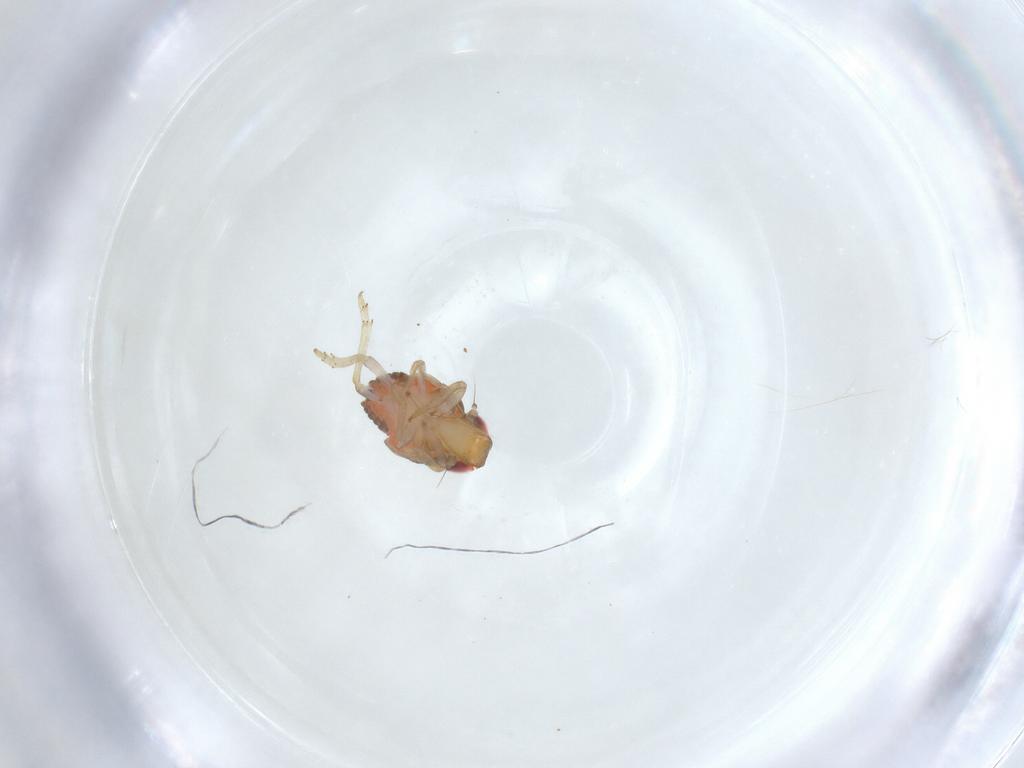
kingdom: Animalia
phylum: Arthropoda
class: Insecta
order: Hemiptera
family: Issidae
